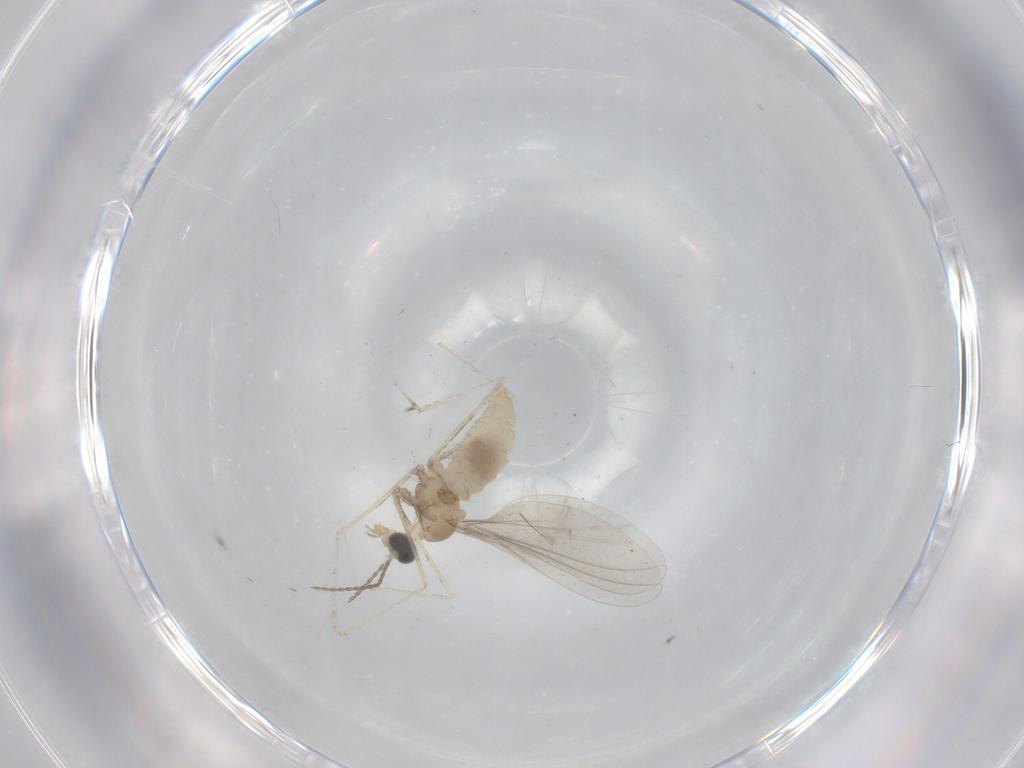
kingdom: Animalia
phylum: Arthropoda
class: Insecta
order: Diptera
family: Cecidomyiidae
